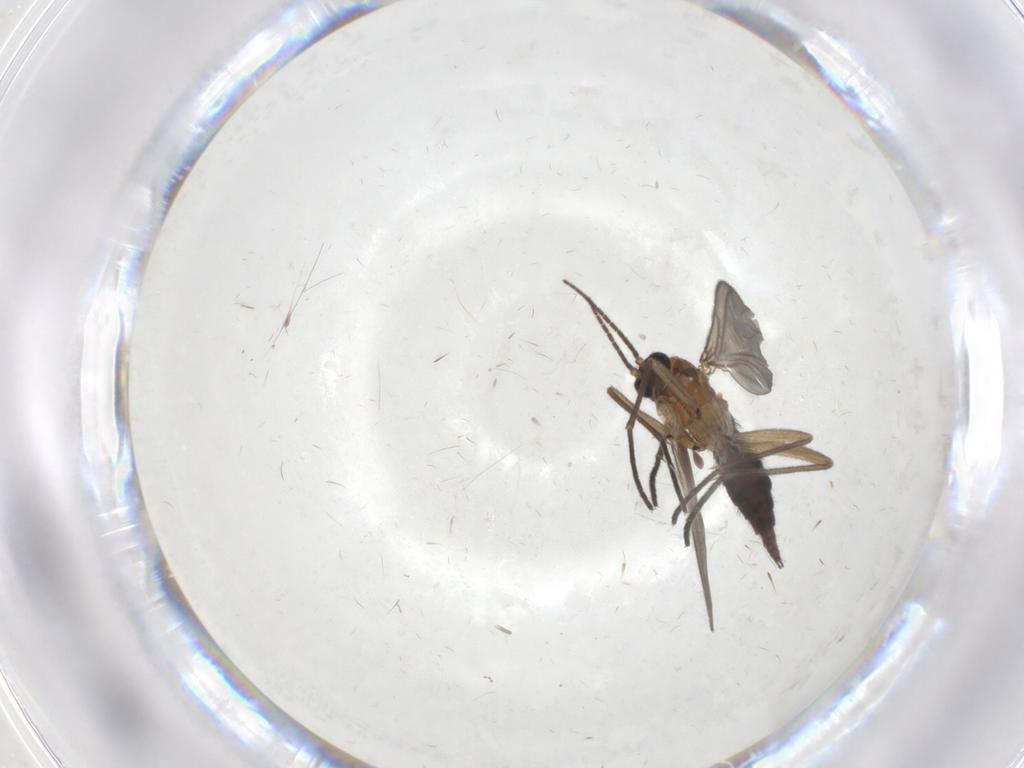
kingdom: Animalia
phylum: Arthropoda
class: Insecta
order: Diptera
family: Sciaridae
